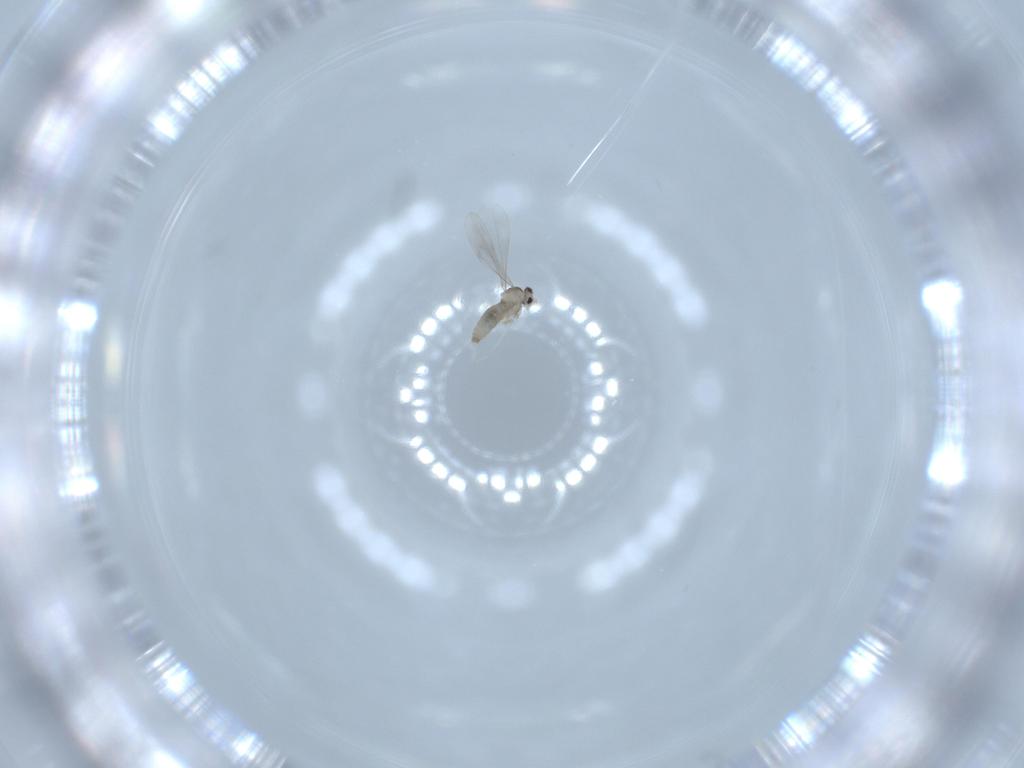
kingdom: Animalia
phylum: Arthropoda
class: Insecta
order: Diptera
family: Cecidomyiidae
